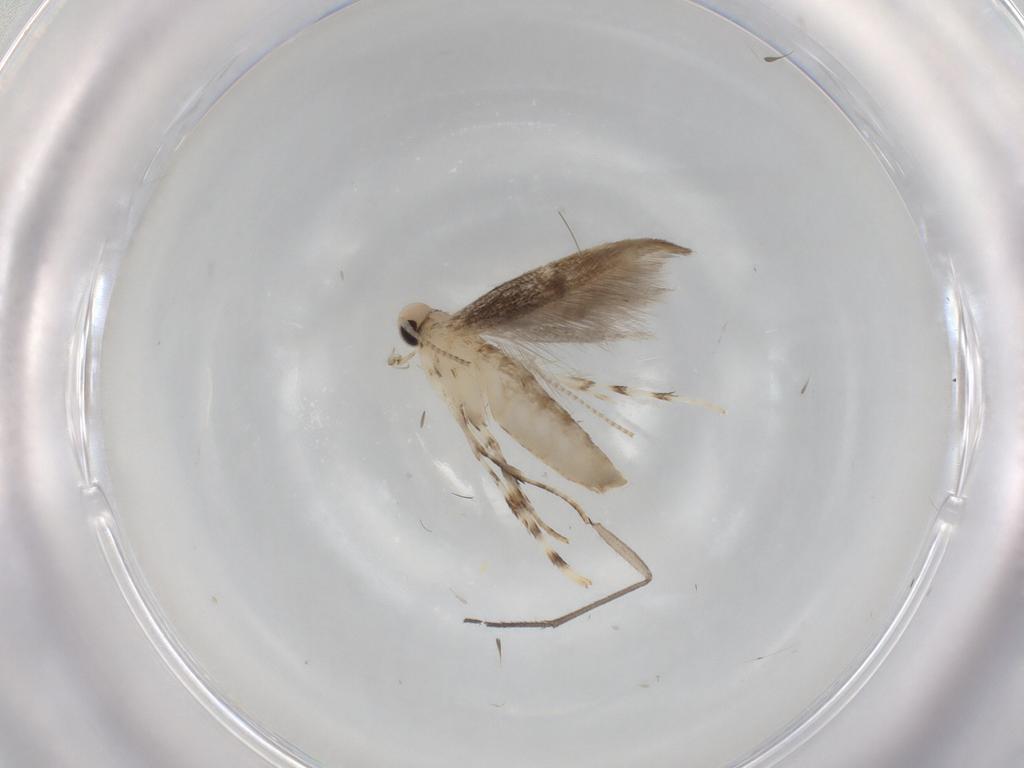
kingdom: Animalia
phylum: Arthropoda
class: Insecta
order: Lepidoptera
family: Gracillariidae
